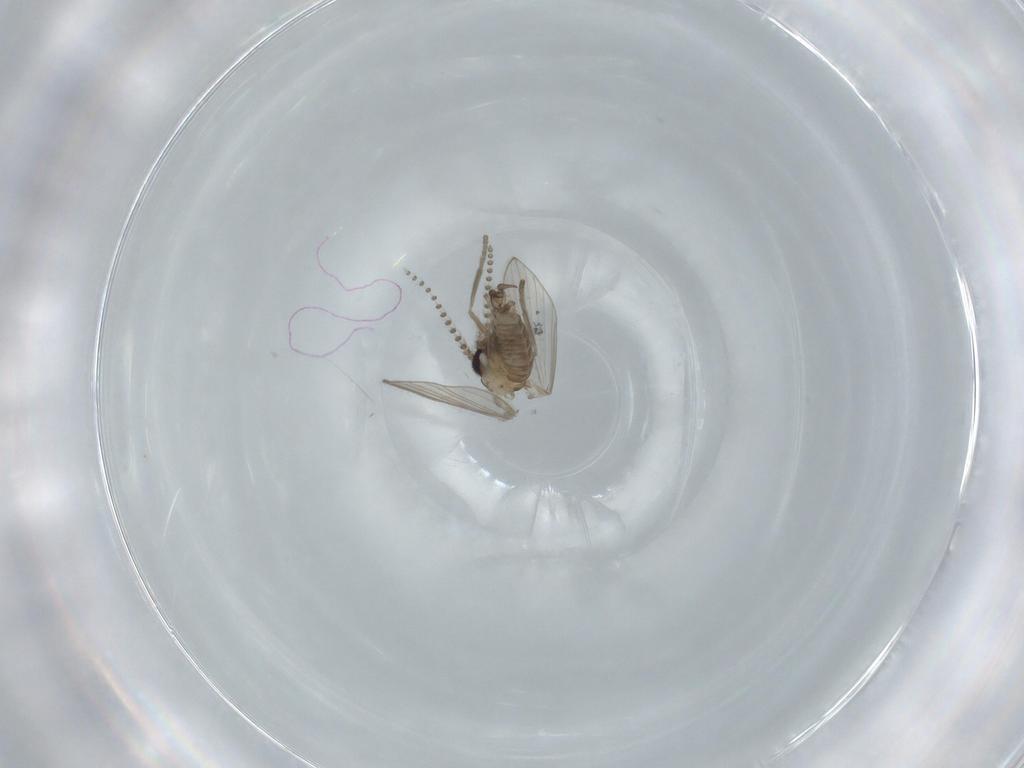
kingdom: Animalia
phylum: Arthropoda
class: Insecta
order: Diptera
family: Psychodidae
